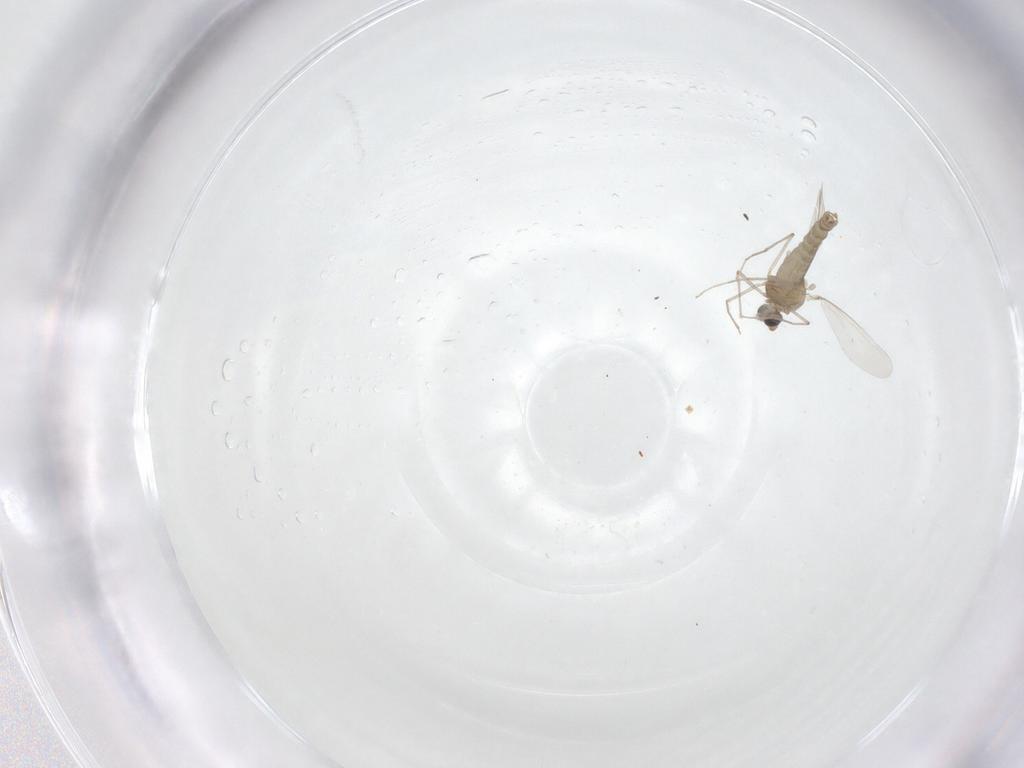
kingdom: Animalia
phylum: Arthropoda
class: Insecta
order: Diptera
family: Chironomidae
